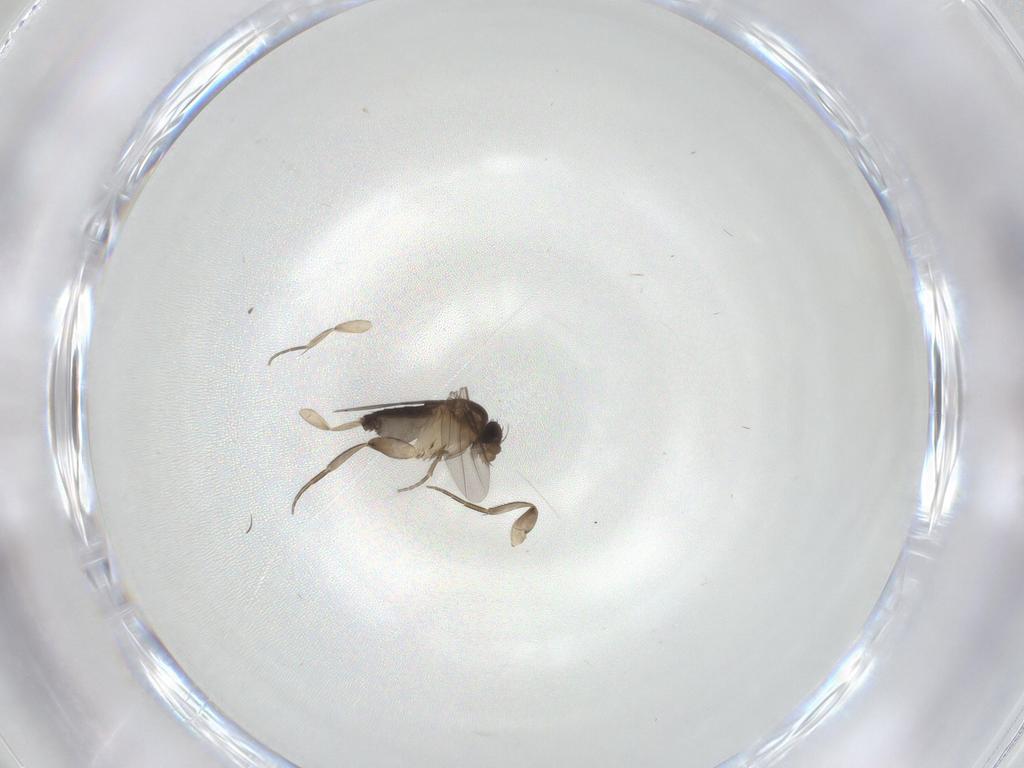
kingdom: Animalia
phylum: Arthropoda
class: Insecta
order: Diptera
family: Phoridae
